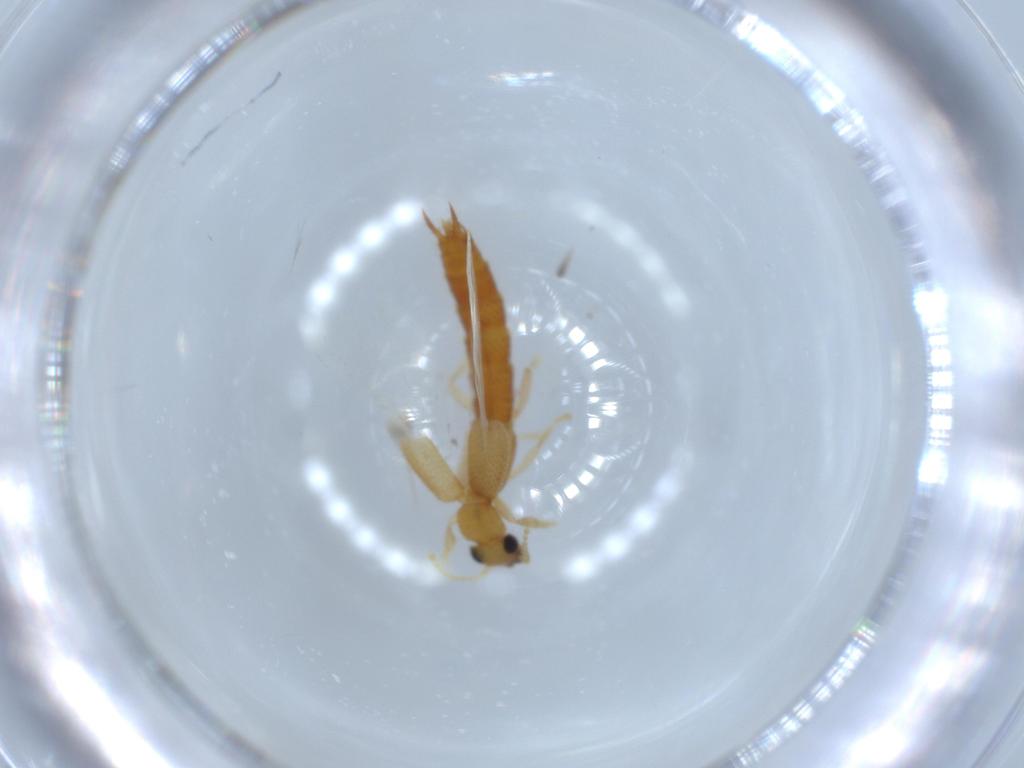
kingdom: Animalia
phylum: Arthropoda
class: Insecta
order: Coleoptera
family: Staphylinidae
